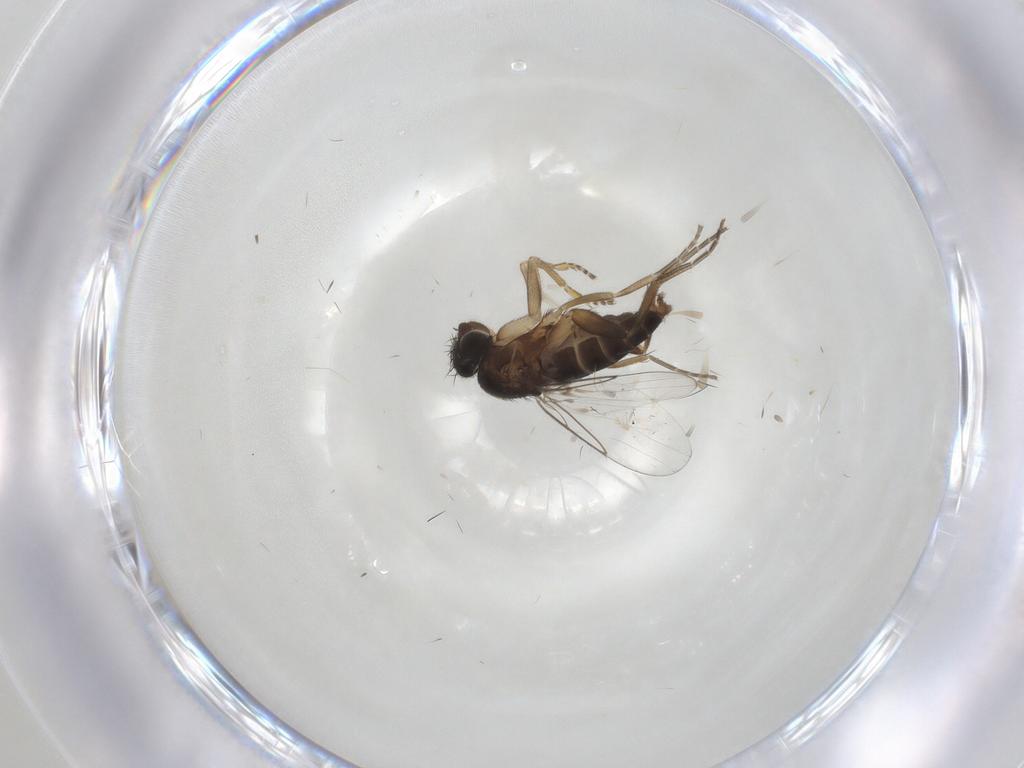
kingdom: Animalia
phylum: Arthropoda
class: Insecta
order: Diptera
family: Phoridae
